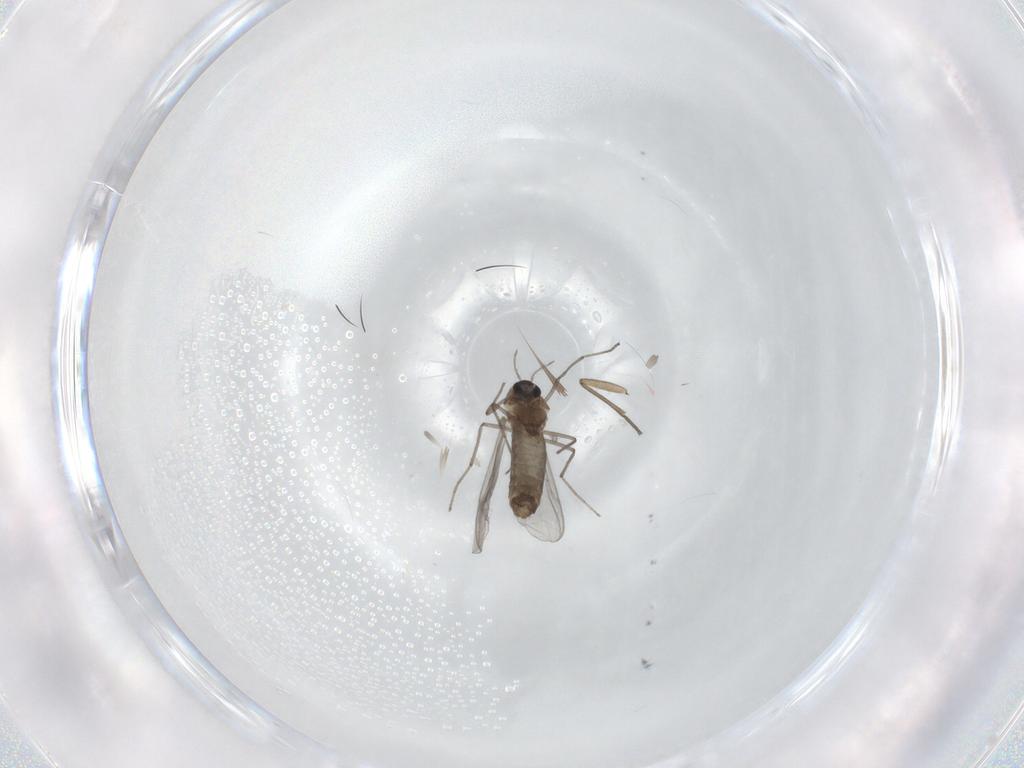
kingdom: Animalia
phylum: Arthropoda
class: Insecta
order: Diptera
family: Chironomidae
